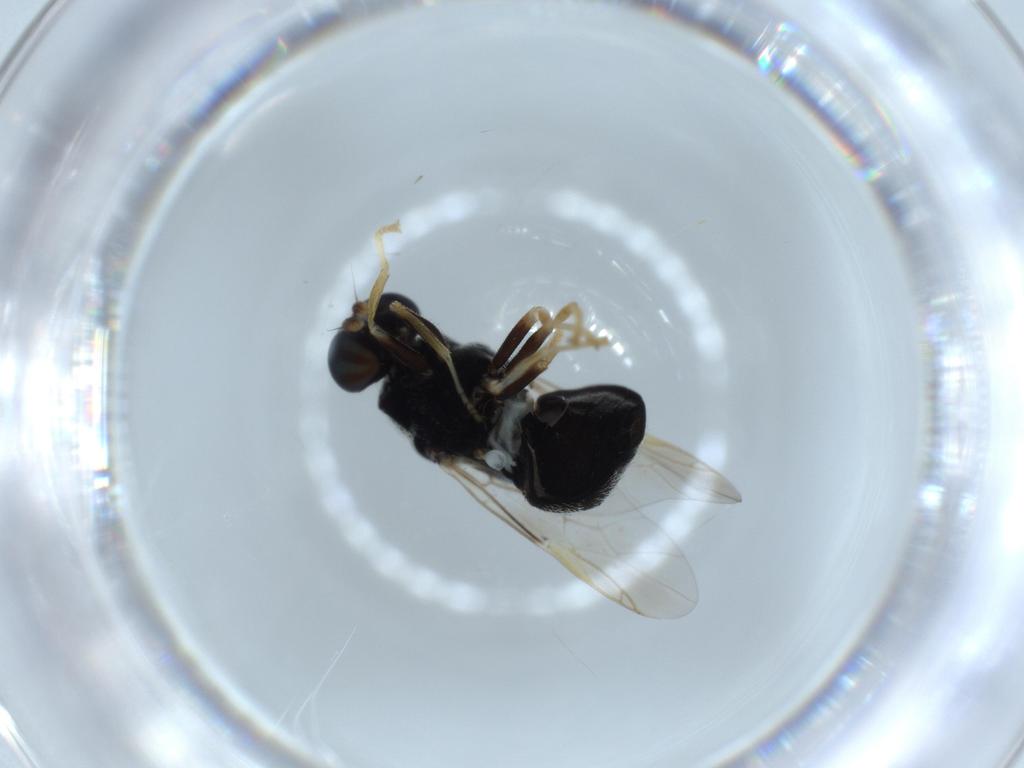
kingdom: Animalia
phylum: Arthropoda
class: Insecta
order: Diptera
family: Stratiomyidae
